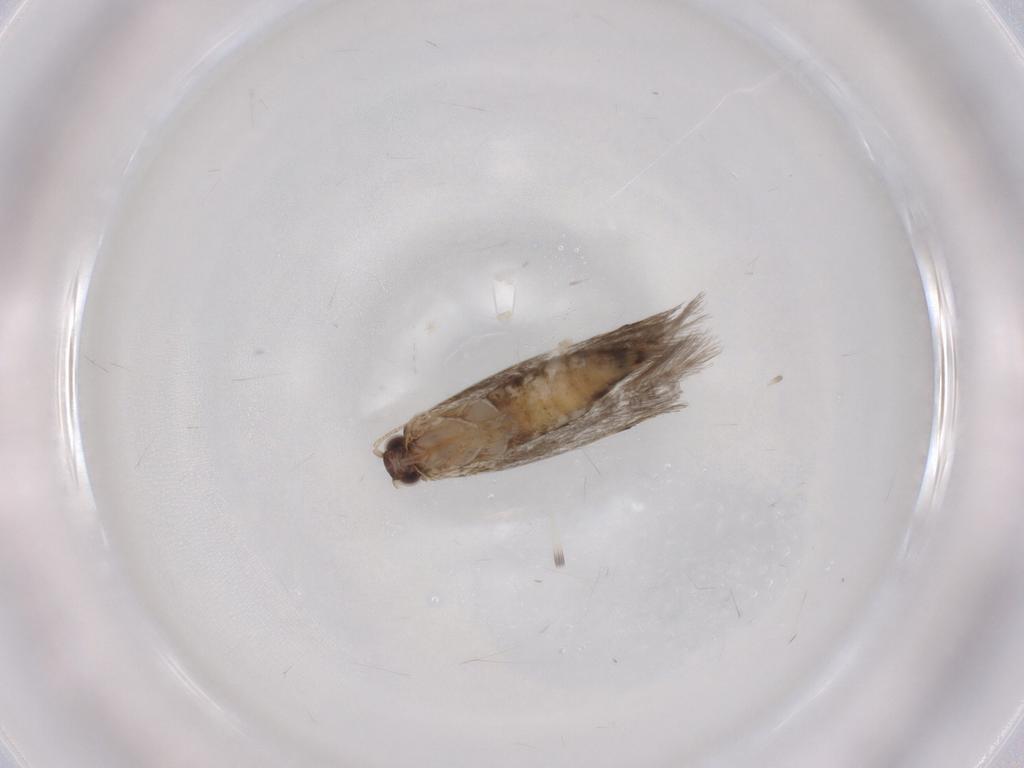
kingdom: Animalia
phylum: Arthropoda
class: Insecta
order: Lepidoptera
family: Tineidae
